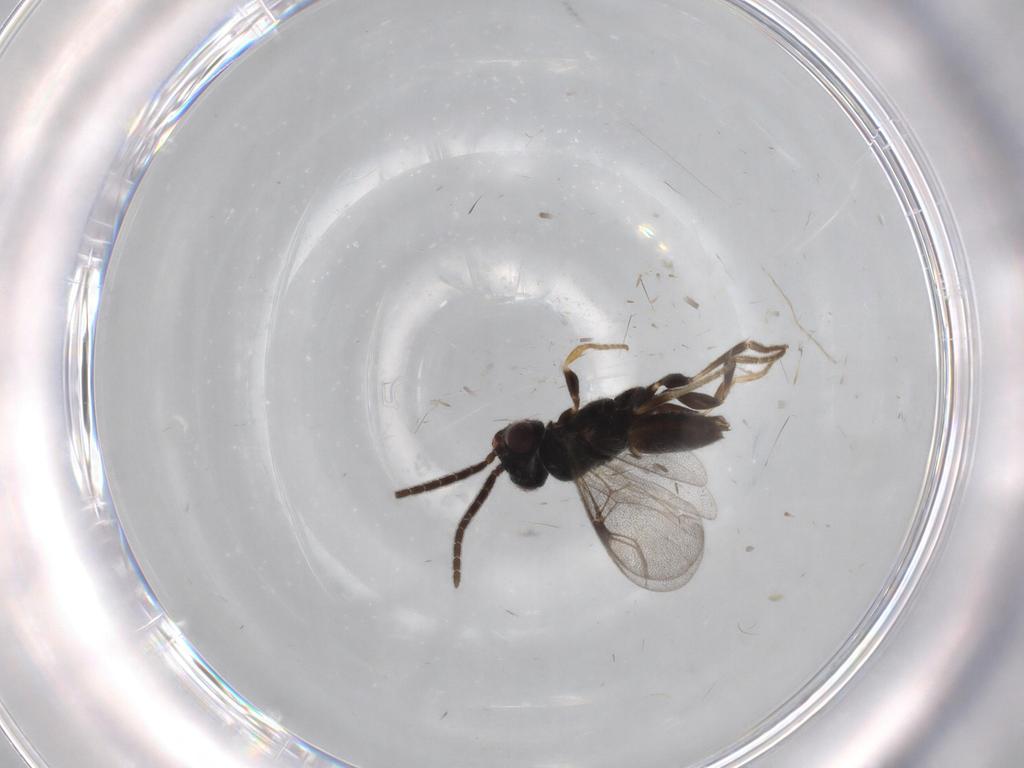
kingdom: Animalia
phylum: Arthropoda
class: Insecta
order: Hymenoptera
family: Dryinidae
